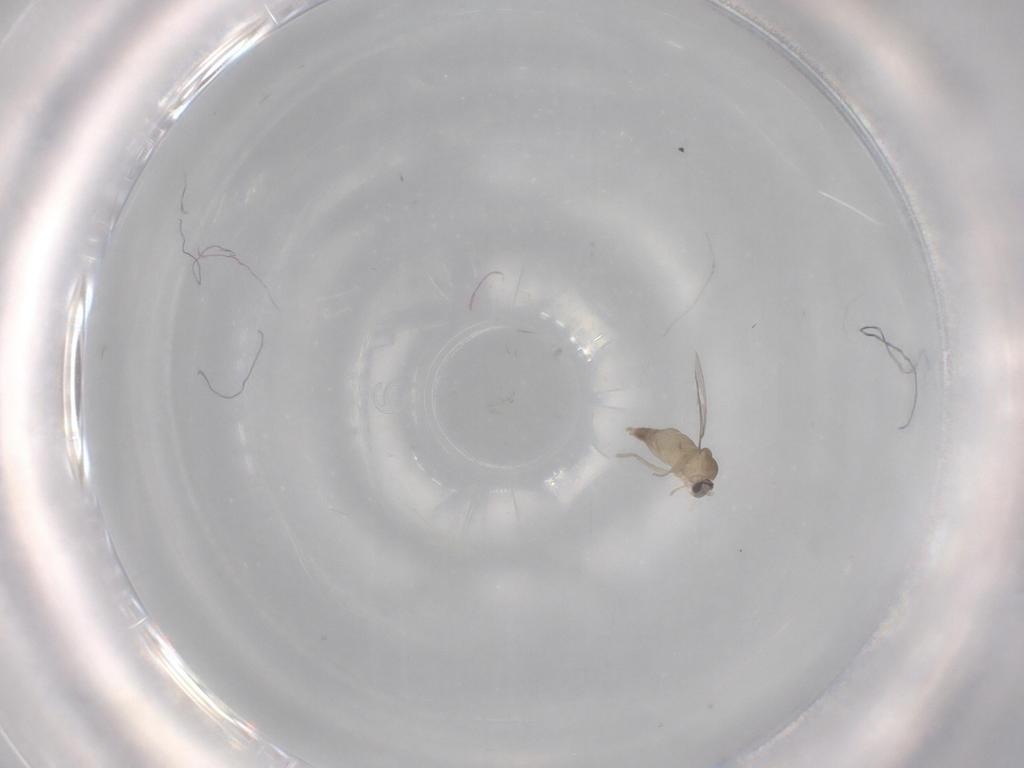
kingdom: Animalia
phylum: Arthropoda
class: Insecta
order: Diptera
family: Cecidomyiidae
